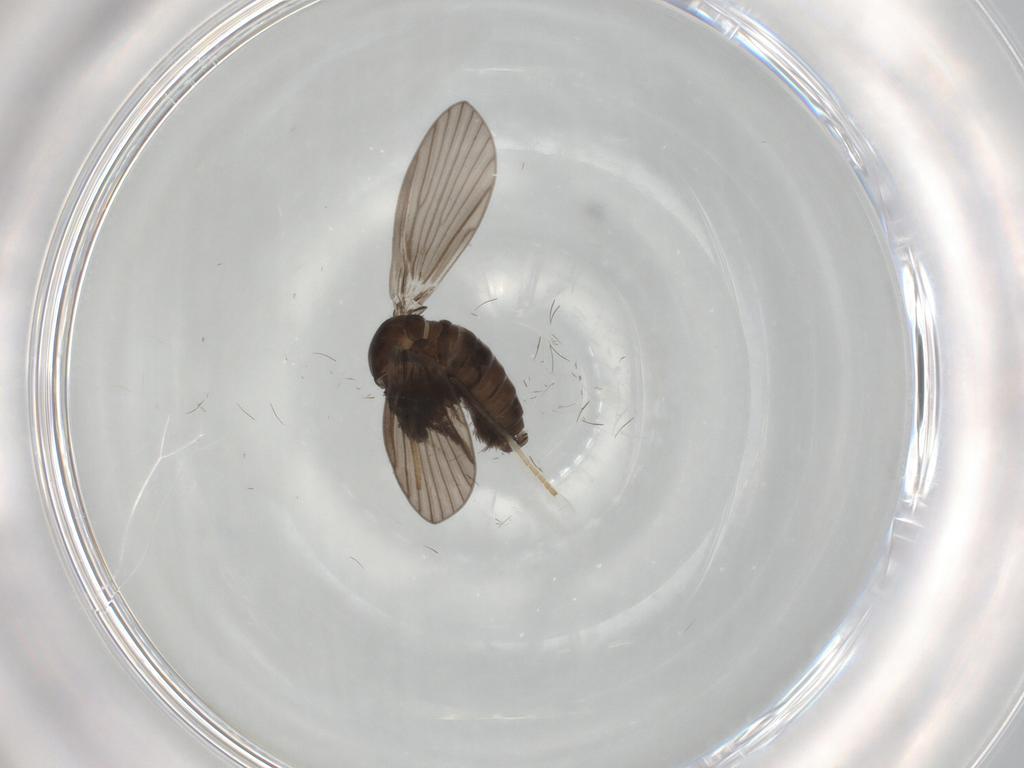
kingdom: Animalia
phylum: Arthropoda
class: Insecta
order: Diptera
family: Psychodidae
